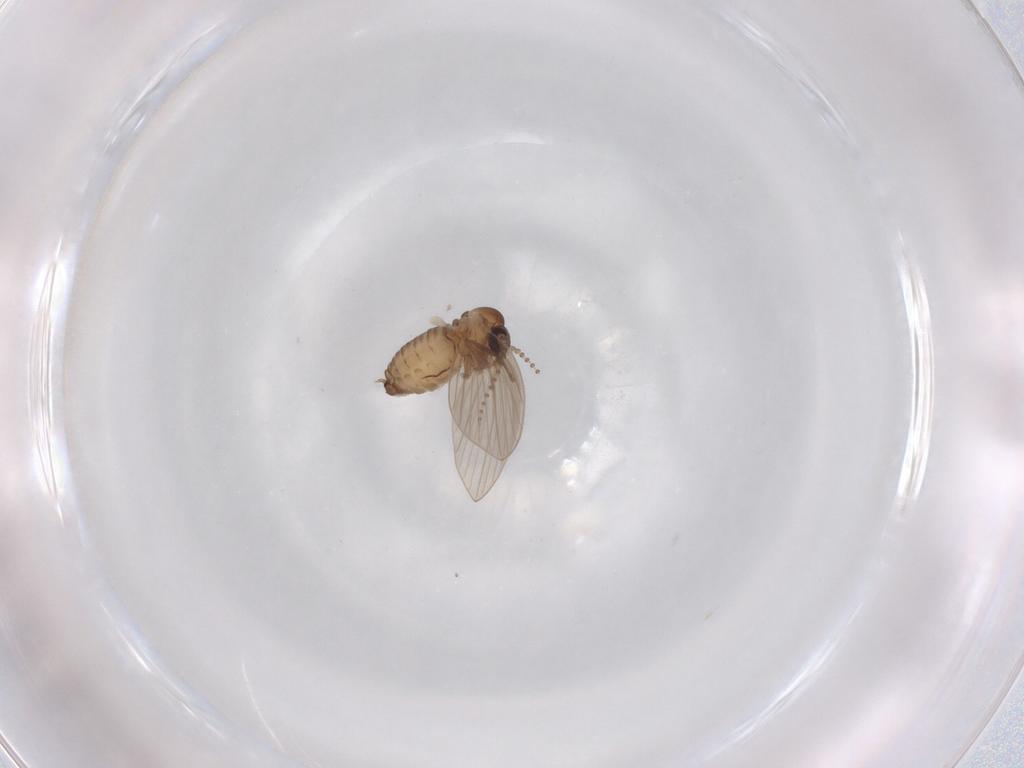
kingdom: Animalia
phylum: Arthropoda
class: Insecta
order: Diptera
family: Psychodidae
